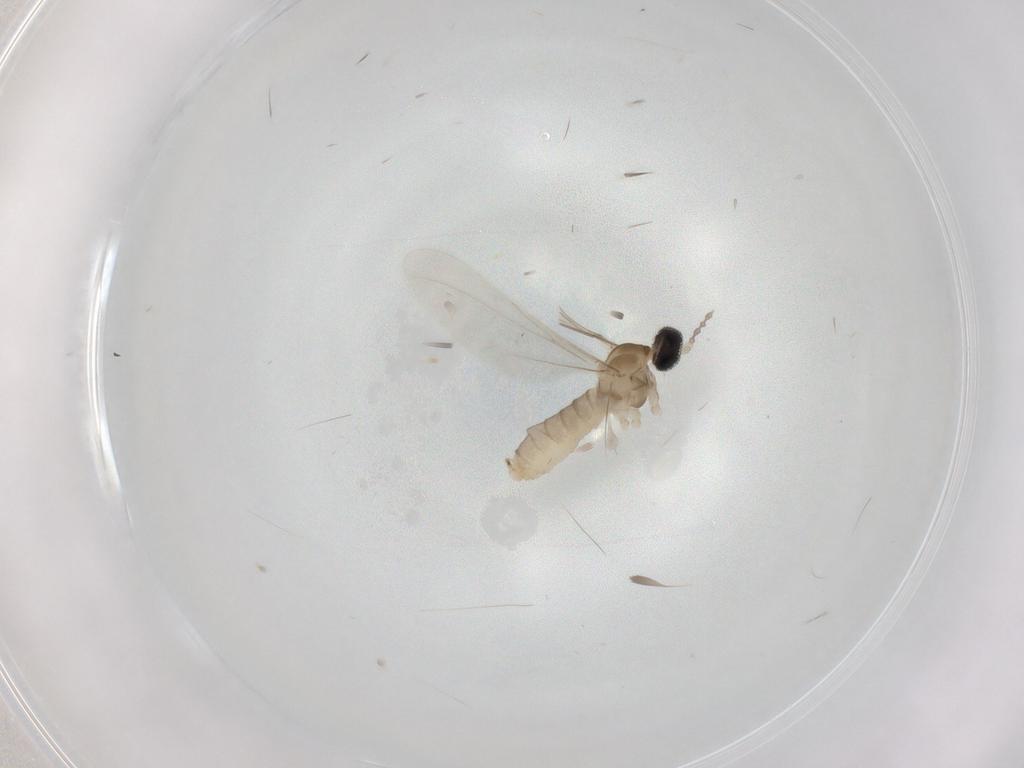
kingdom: Animalia
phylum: Arthropoda
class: Insecta
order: Diptera
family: Cecidomyiidae
